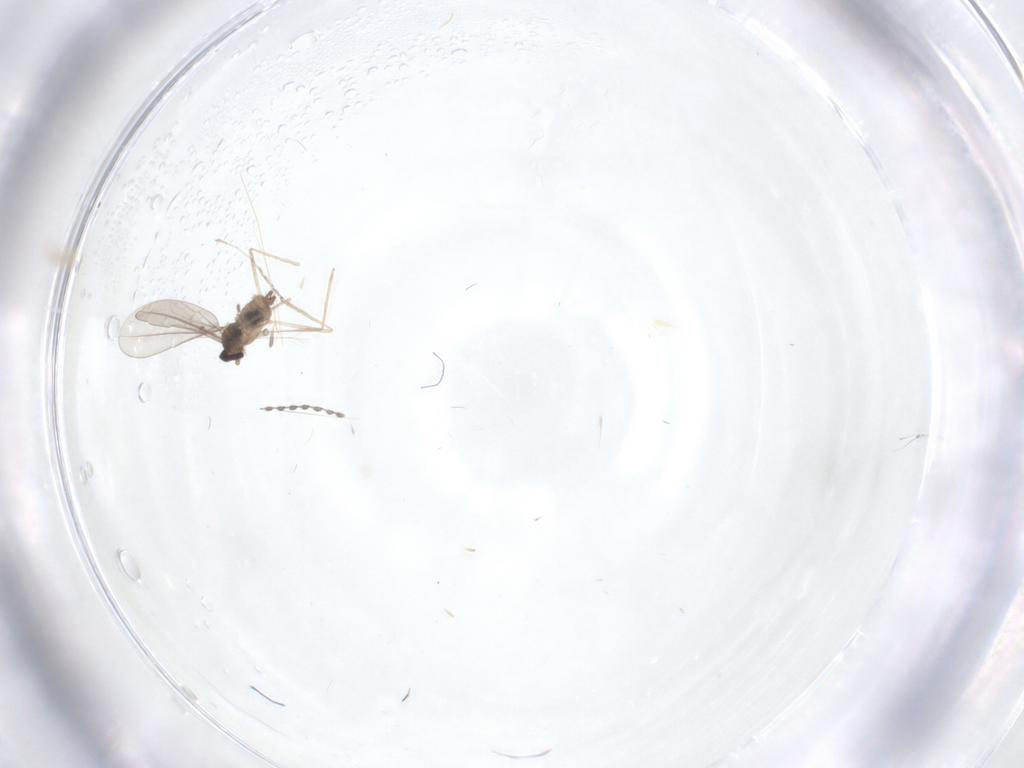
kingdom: Animalia
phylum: Arthropoda
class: Insecta
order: Diptera
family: Cecidomyiidae
